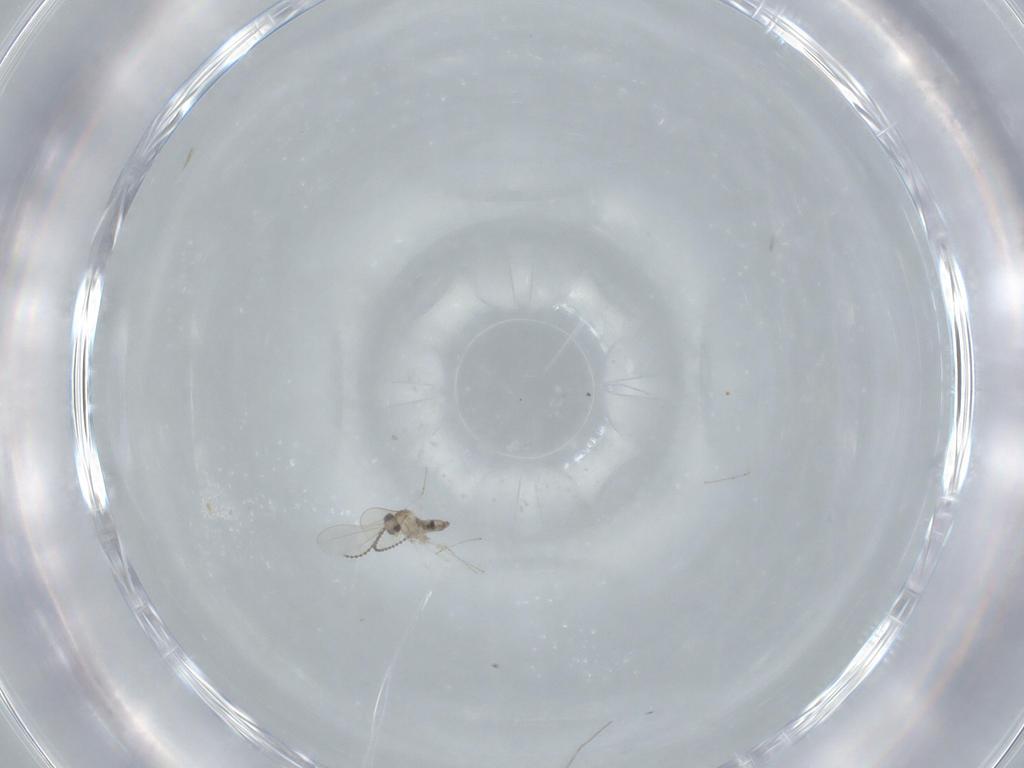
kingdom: Animalia
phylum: Arthropoda
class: Insecta
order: Diptera
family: Cecidomyiidae
